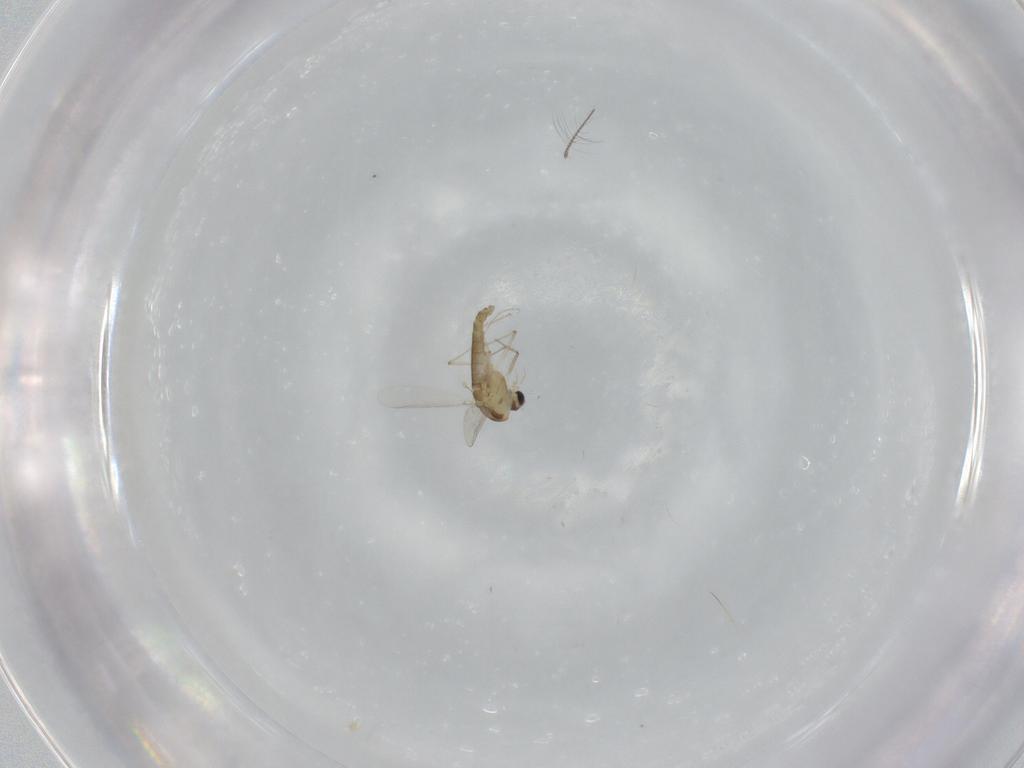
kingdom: Animalia
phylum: Arthropoda
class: Insecta
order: Diptera
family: Chironomidae
